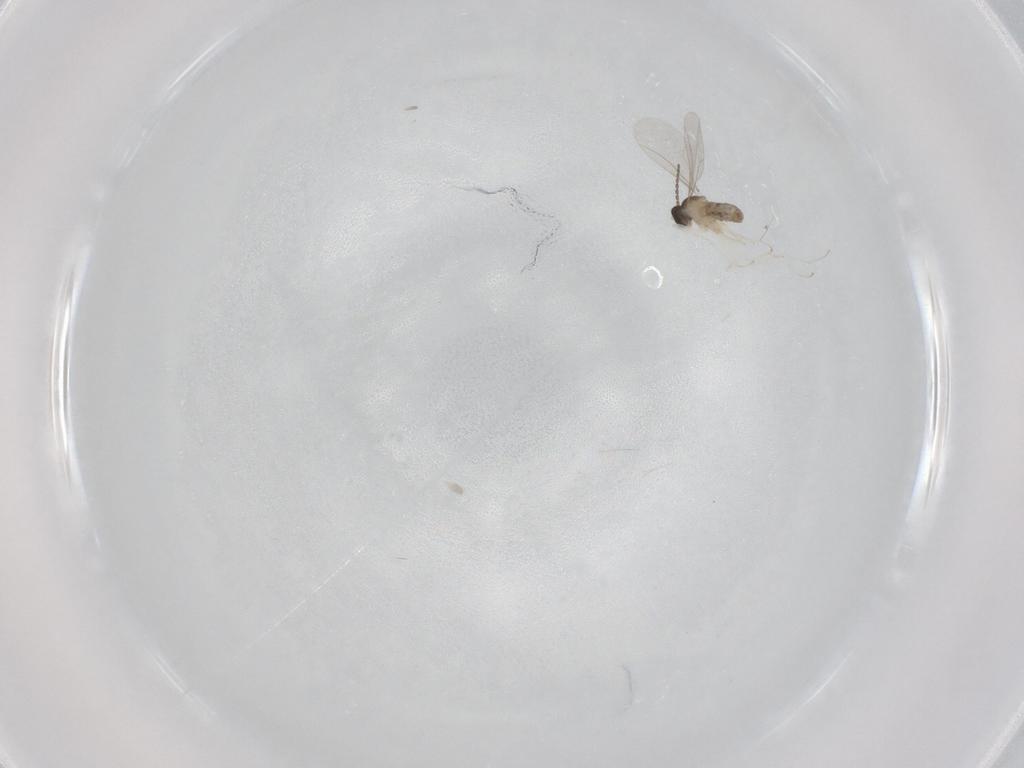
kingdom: Animalia
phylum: Arthropoda
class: Insecta
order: Diptera
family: Cecidomyiidae
